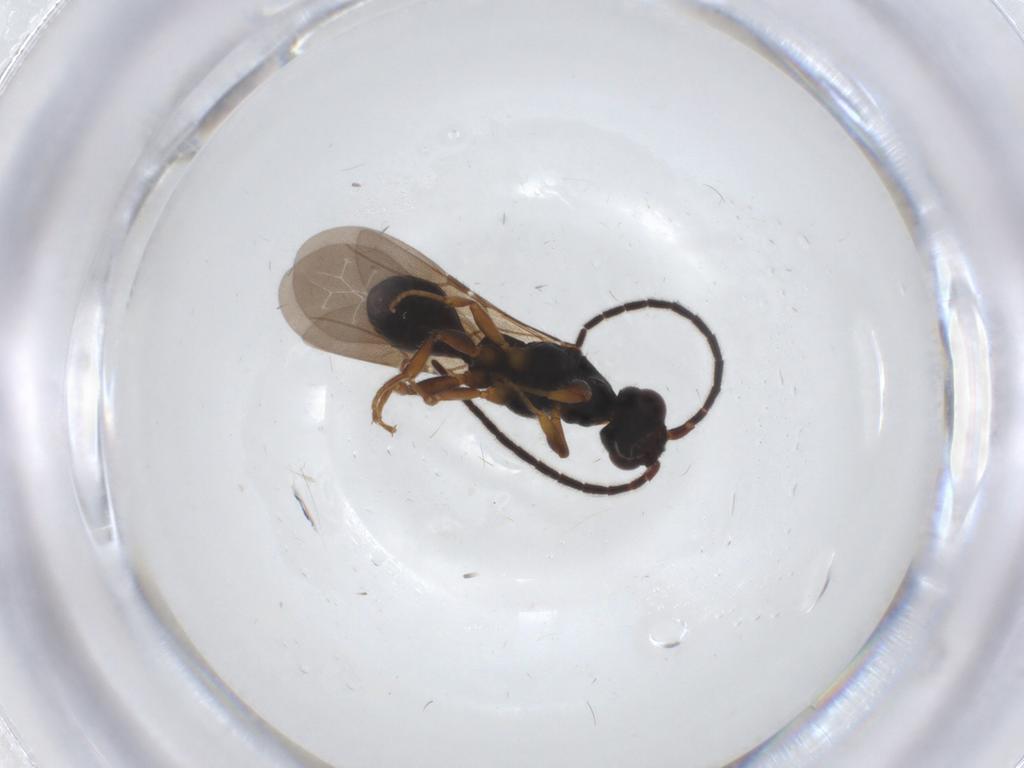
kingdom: Animalia
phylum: Arthropoda
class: Insecta
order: Hymenoptera
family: Bethylidae
